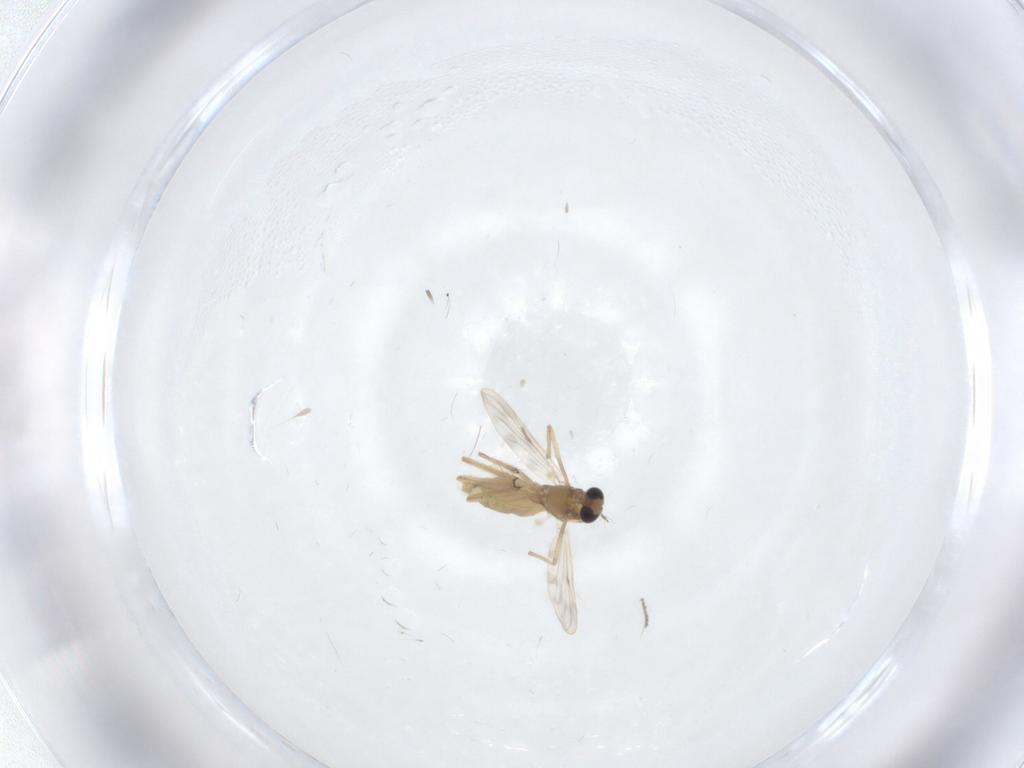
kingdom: Animalia
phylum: Arthropoda
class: Insecta
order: Diptera
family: Chironomidae
